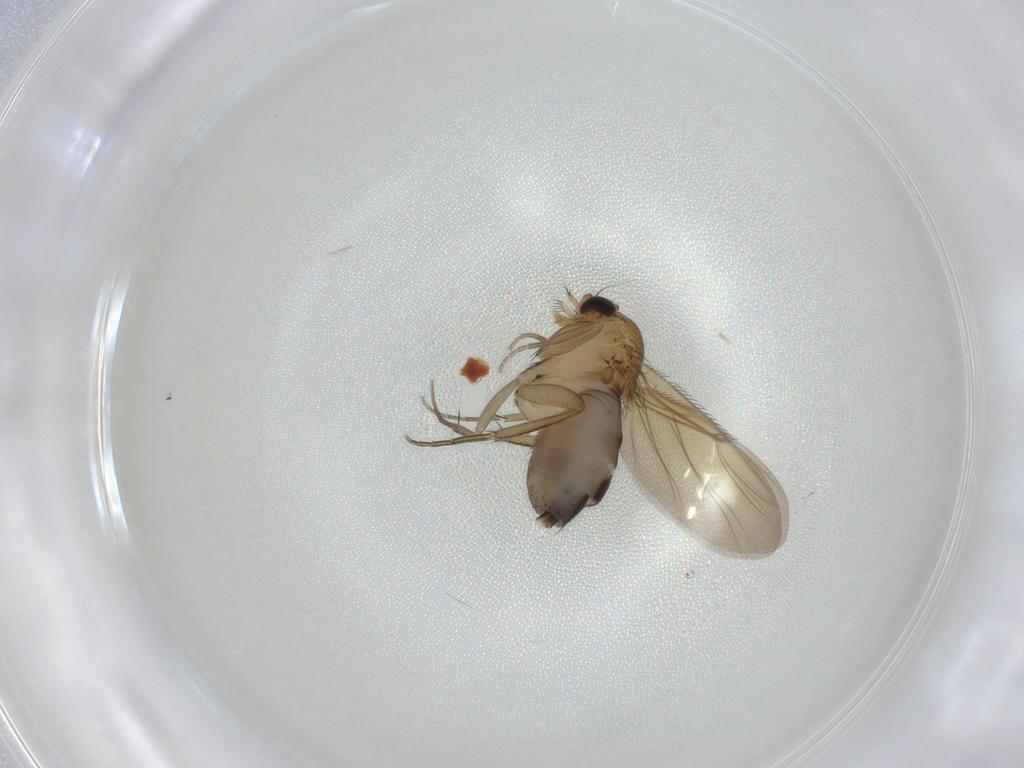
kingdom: Animalia
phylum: Arthropoda
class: Insecta
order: Diptera
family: Phoridae
